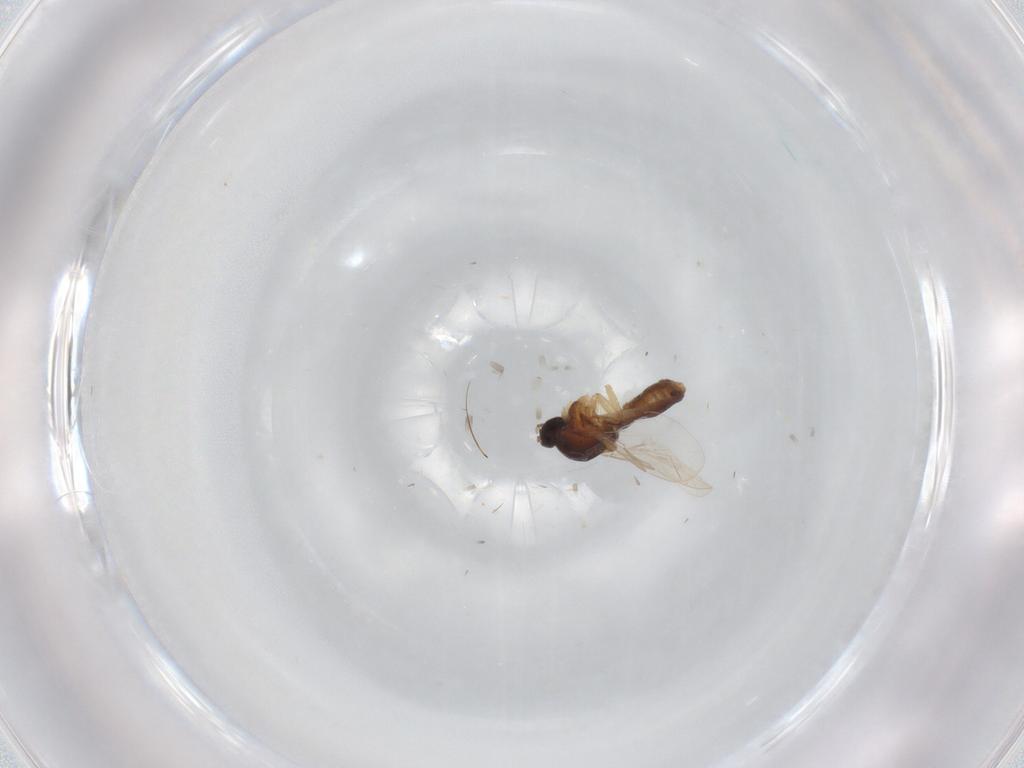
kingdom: Animalia
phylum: Arthropoda
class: Insecta
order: Diptera
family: Ceratopogonidae
